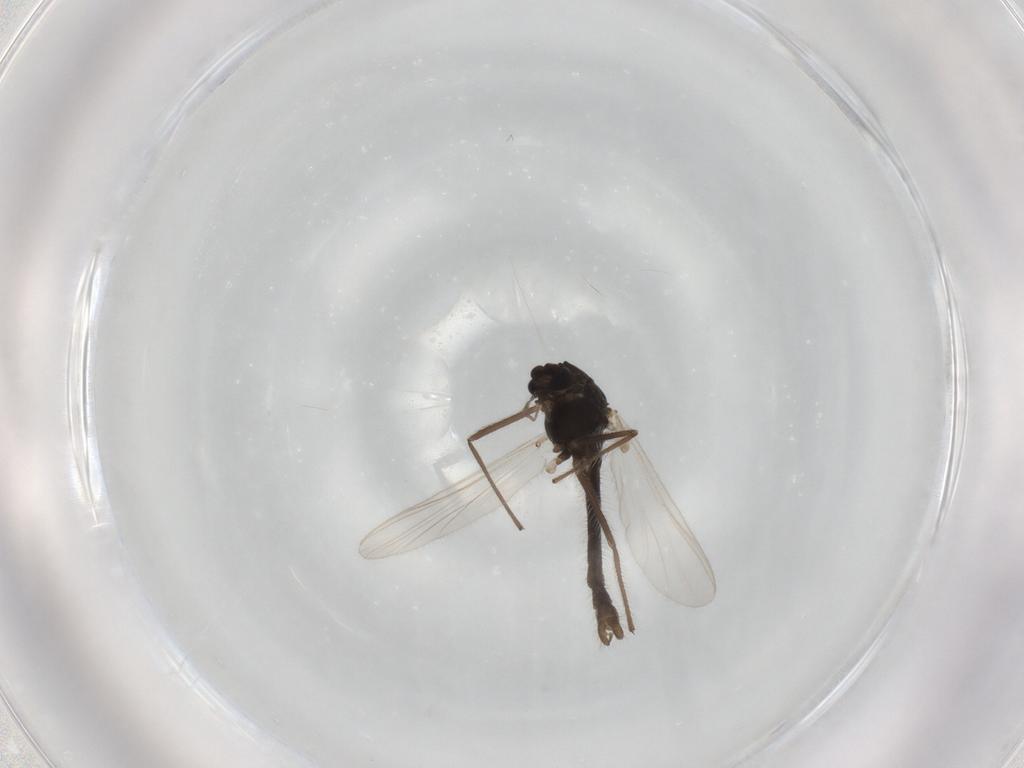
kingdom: Animalia
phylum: Arthropoda
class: Insecta
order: Diptera
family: Chironomidae
